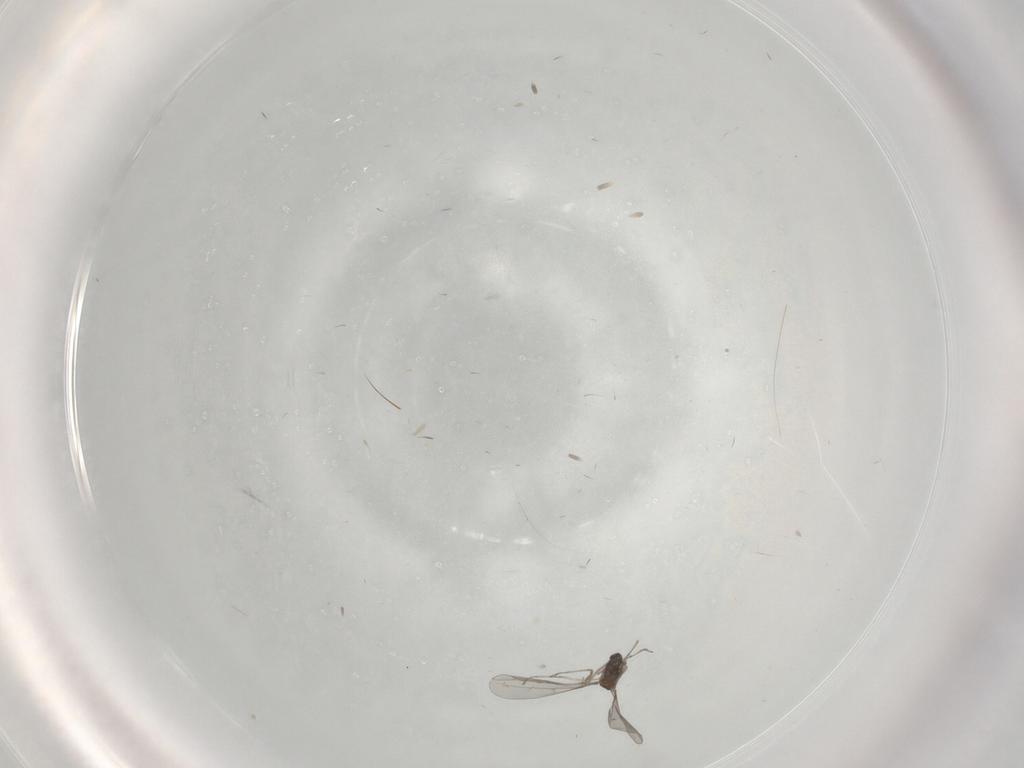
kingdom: Animalia
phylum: Arthropoda
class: Insecta
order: Diptera
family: Cecidomyiidae
